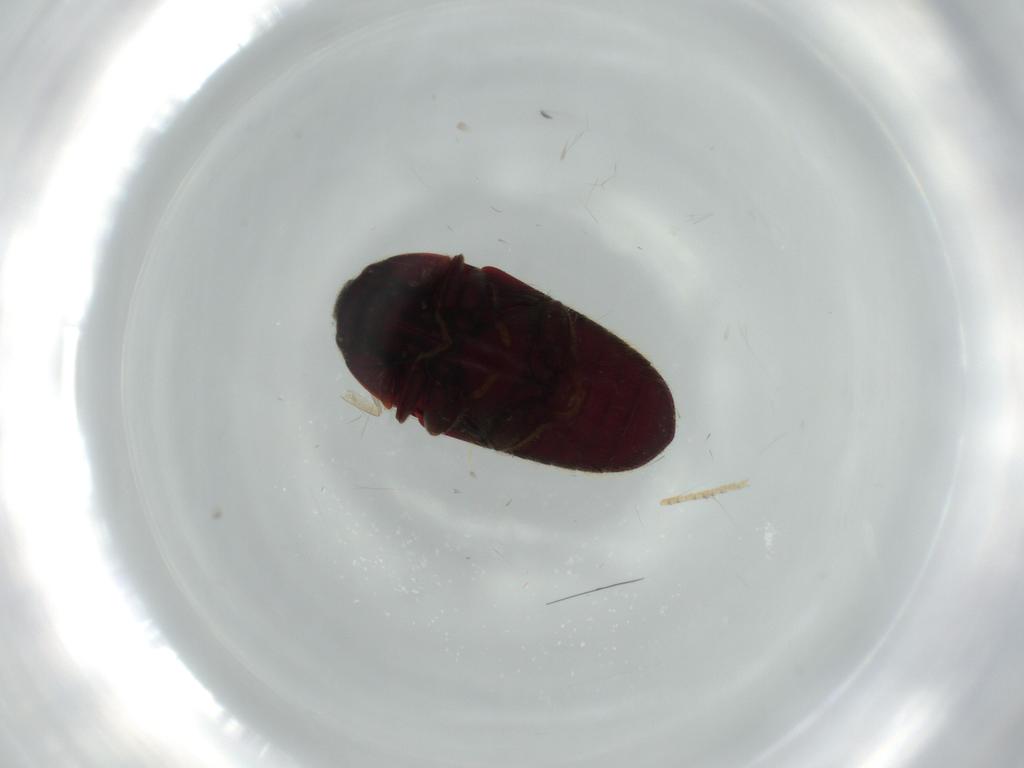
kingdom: Animalia
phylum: Arthropoda
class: Insecta
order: Coleoptera
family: Throscidae
